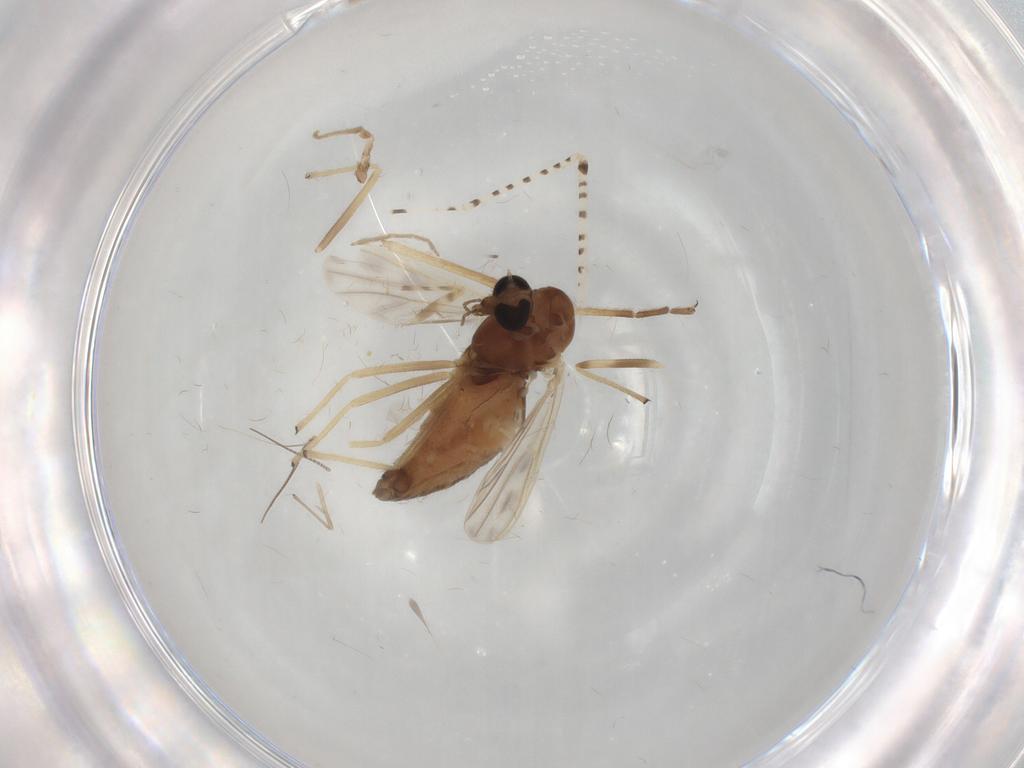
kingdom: Animalia
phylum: Arthropoda
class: Insecta
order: Diptera
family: Chironomidae
